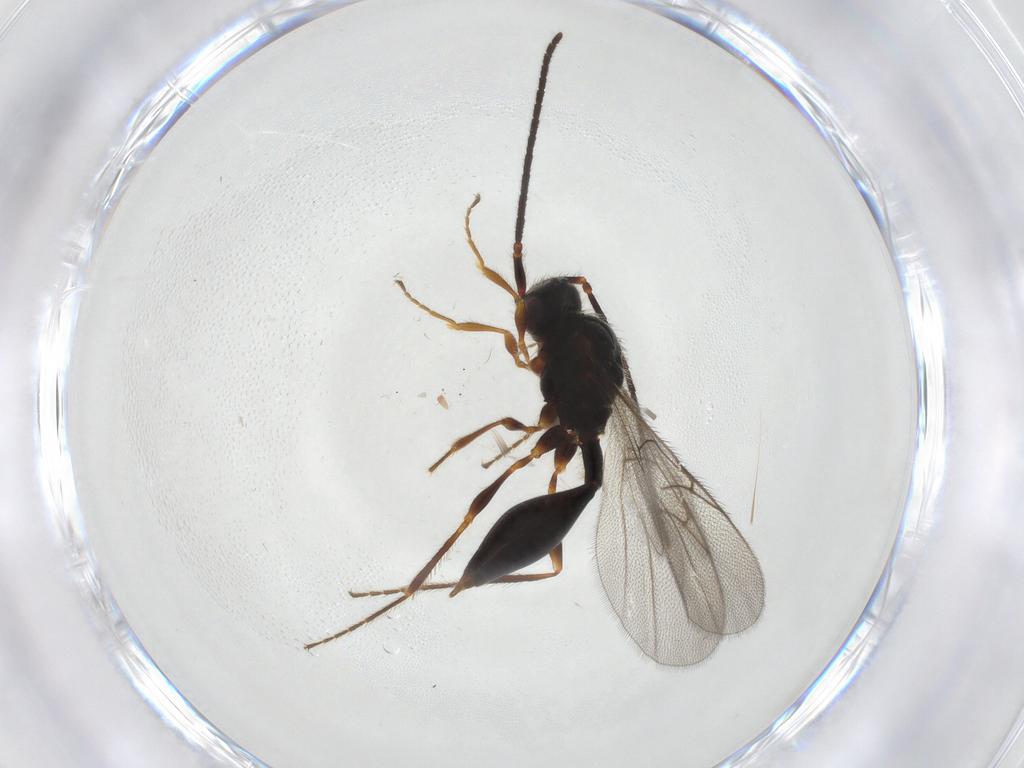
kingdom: Animalia
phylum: Arthropoda
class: Insecta
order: Hymenoptera
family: Diapriidae
